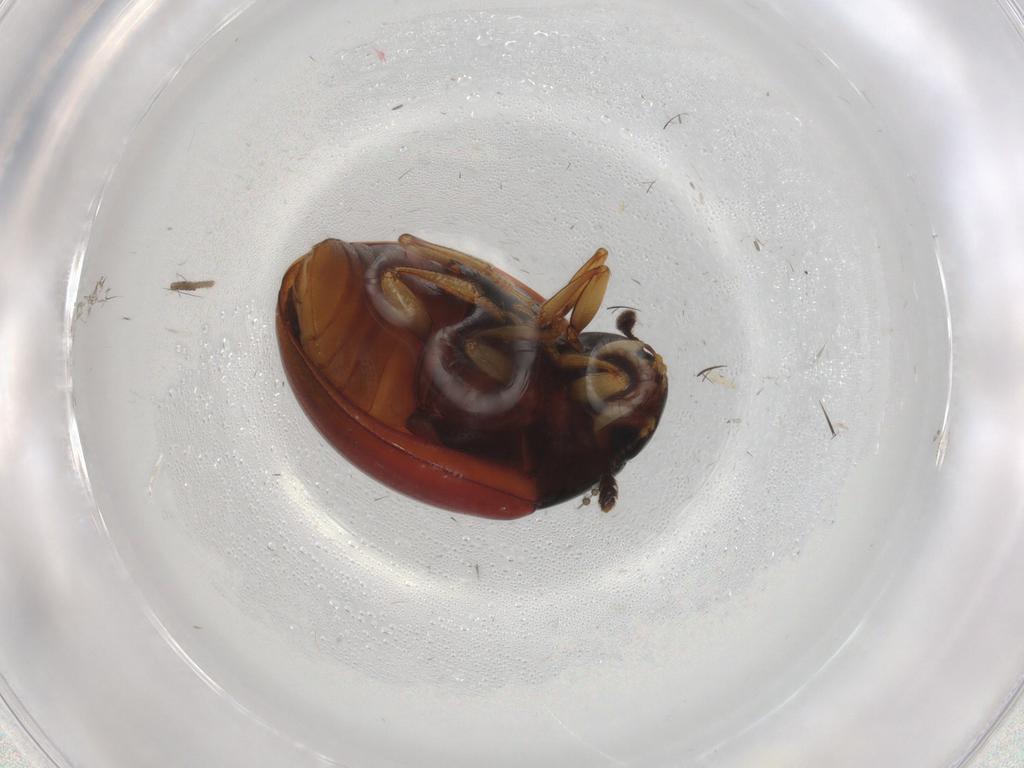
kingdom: Animalia
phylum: Arthropoda
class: Insecta
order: Coleoptera
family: Erotylidae
